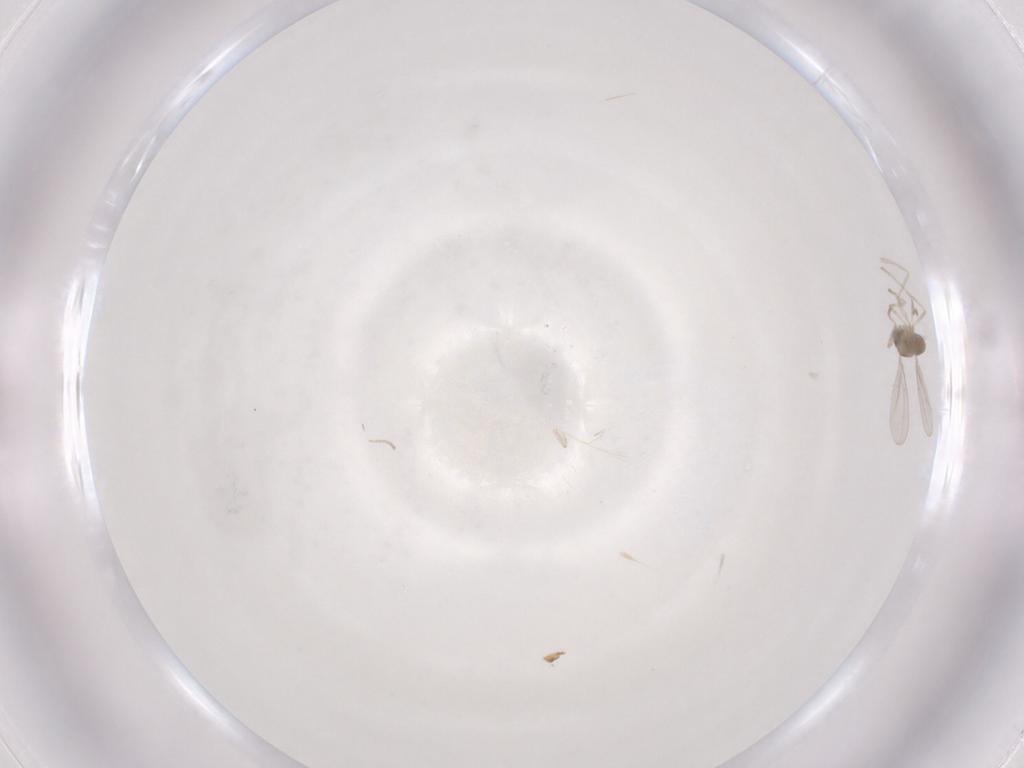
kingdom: Animalia
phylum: Arthropoda
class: Insecta
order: Diptera
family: Cecidomyiidae
